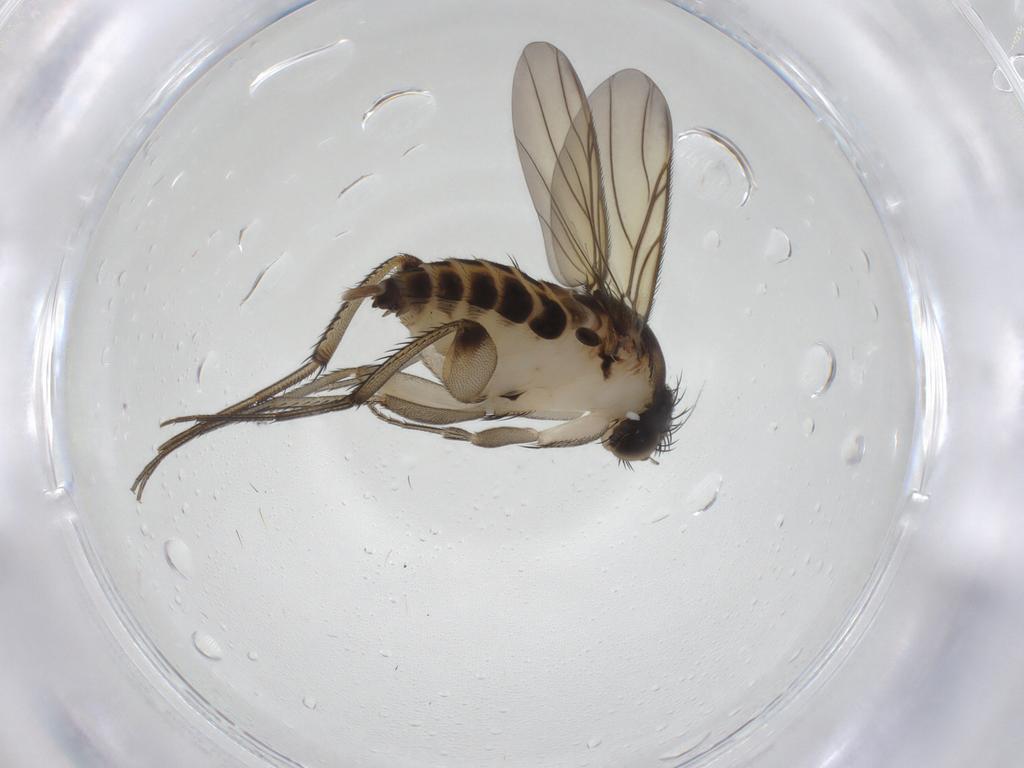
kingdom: Animalia
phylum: Arthropoda
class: Insecta
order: Diptera
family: Phoridae
